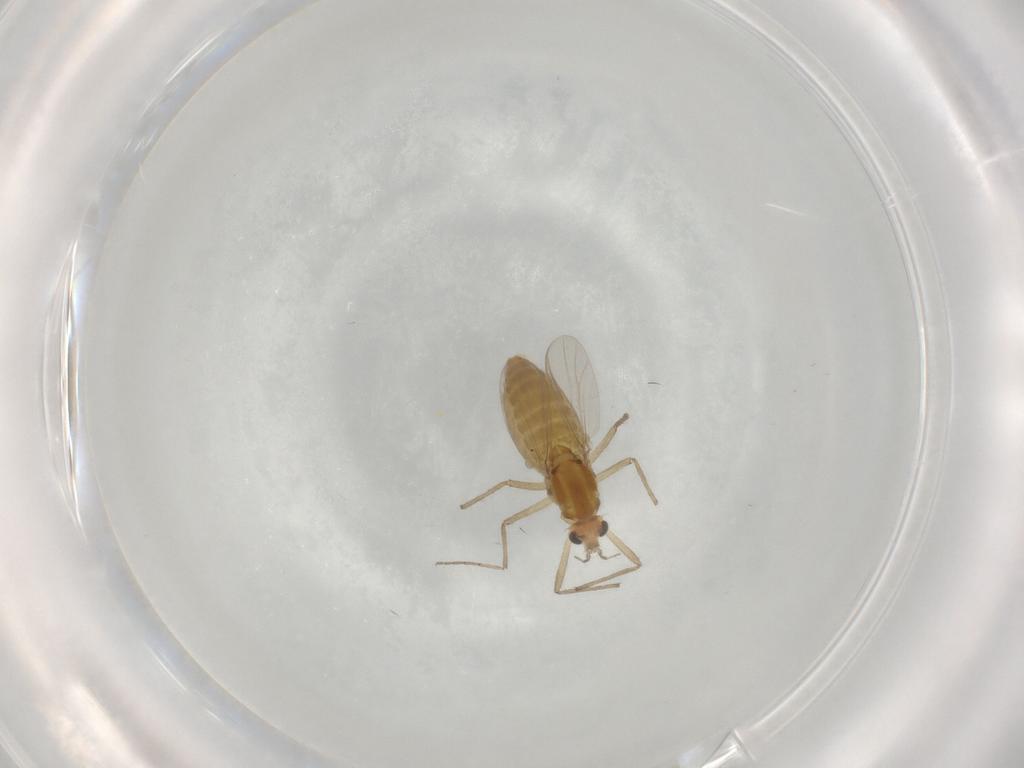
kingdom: Animalia
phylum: Arthropoda
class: Insecta
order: Diptera
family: Chironomidae
